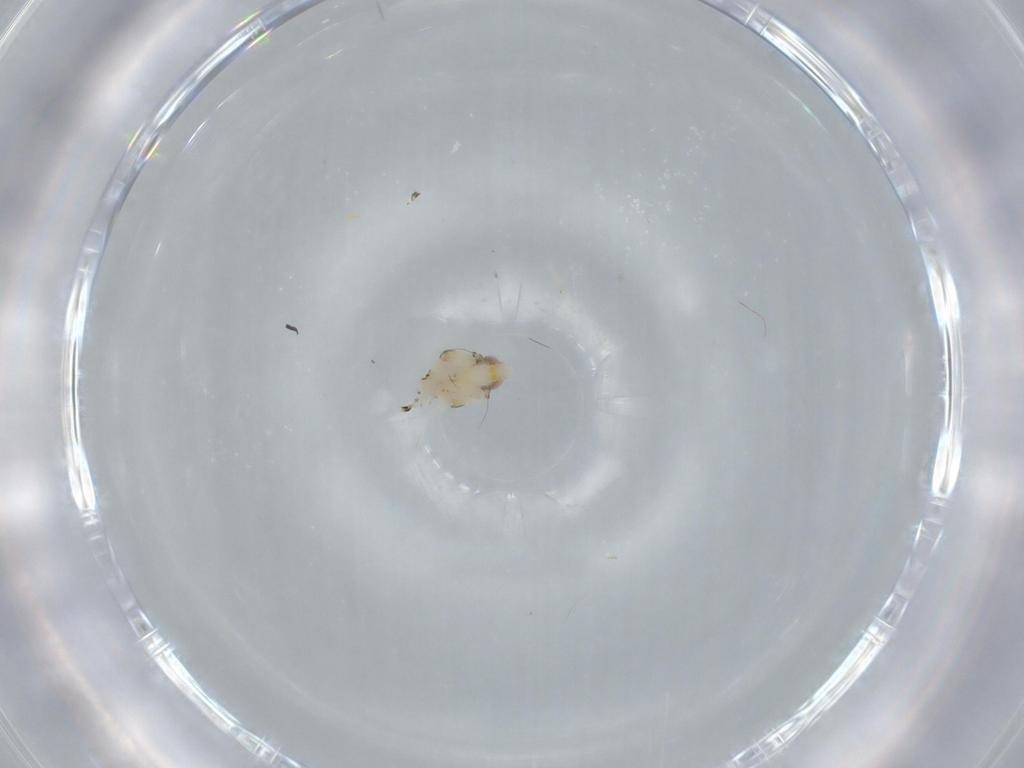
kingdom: Animalia
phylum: Arthropoda
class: Insecta
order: Hemiptera
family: Nogodinidae
